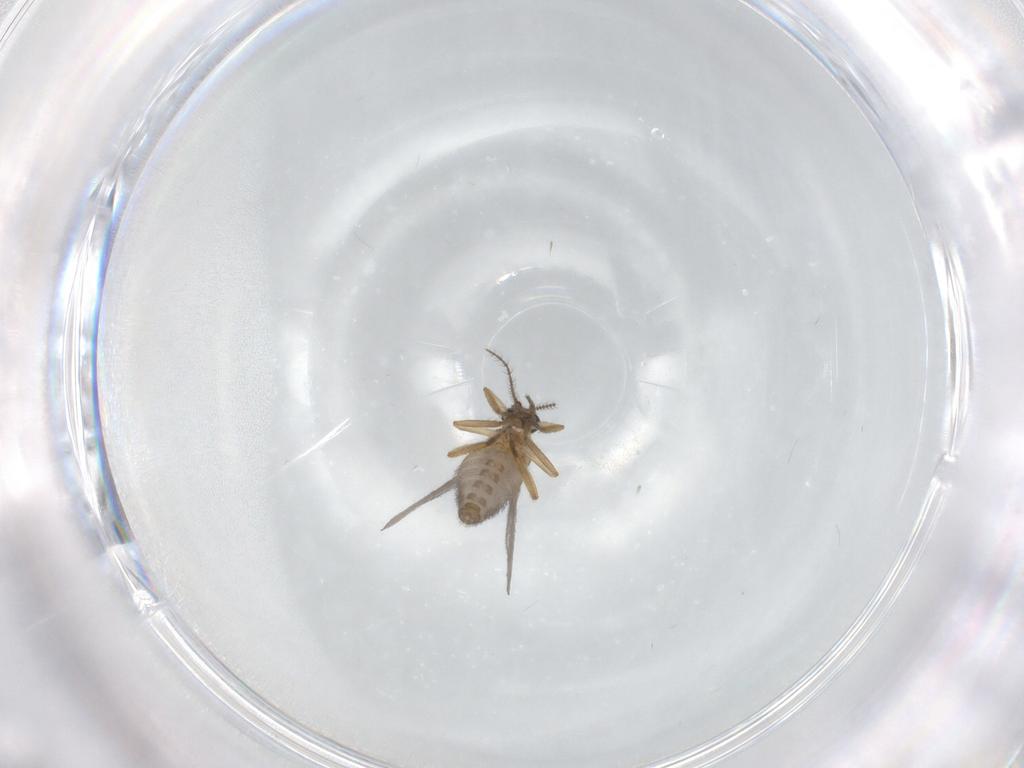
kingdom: Animalia
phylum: Arthropoda
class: Insecta
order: Diptera
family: Ceratopogonidae
